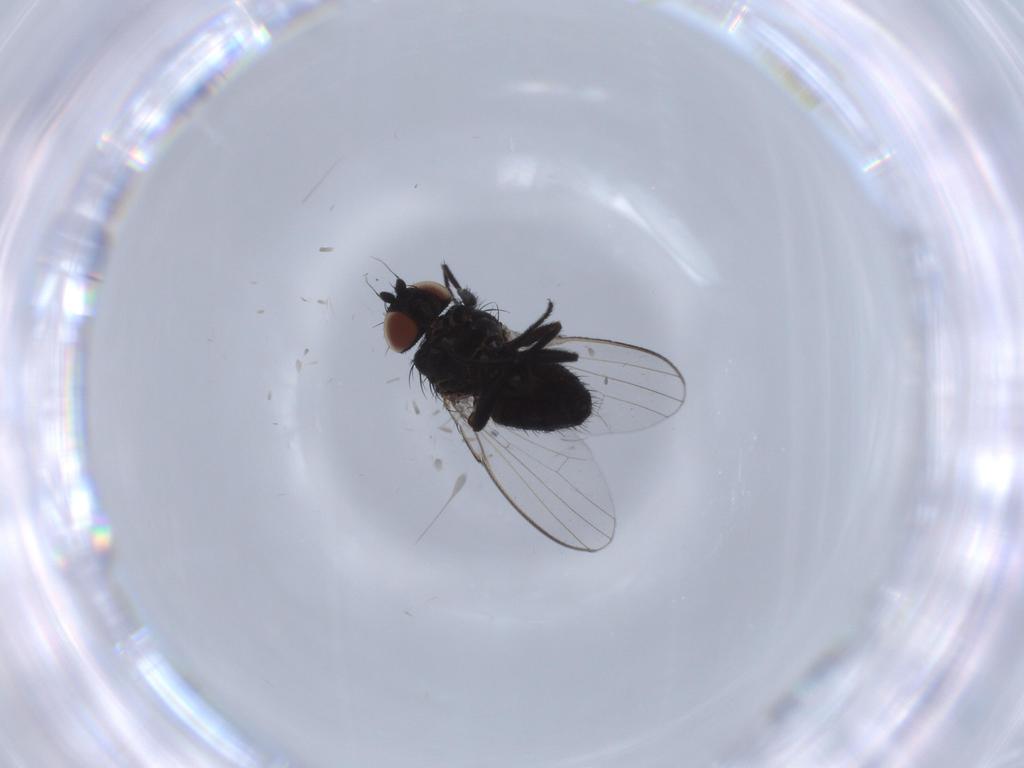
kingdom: Animalia
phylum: Arthropoda
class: Insecta
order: Diptera
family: Milichiidae
